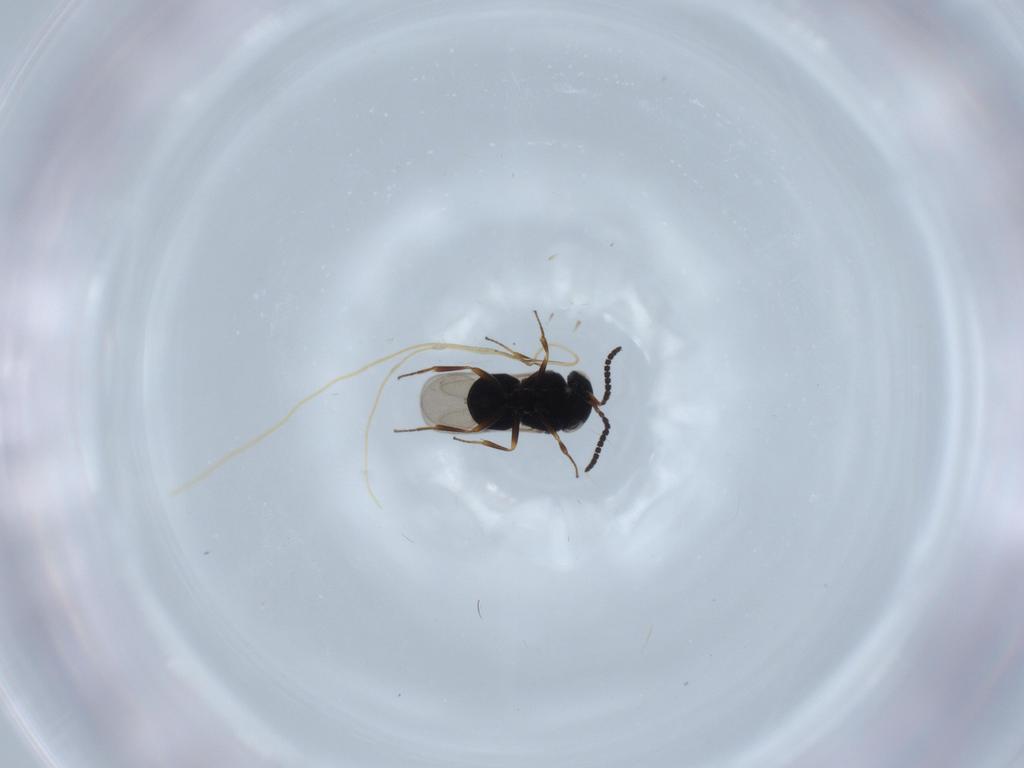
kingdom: Animalia
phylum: Arthropoda
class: Insecta
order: Hymenoptera
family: Scelionidae
